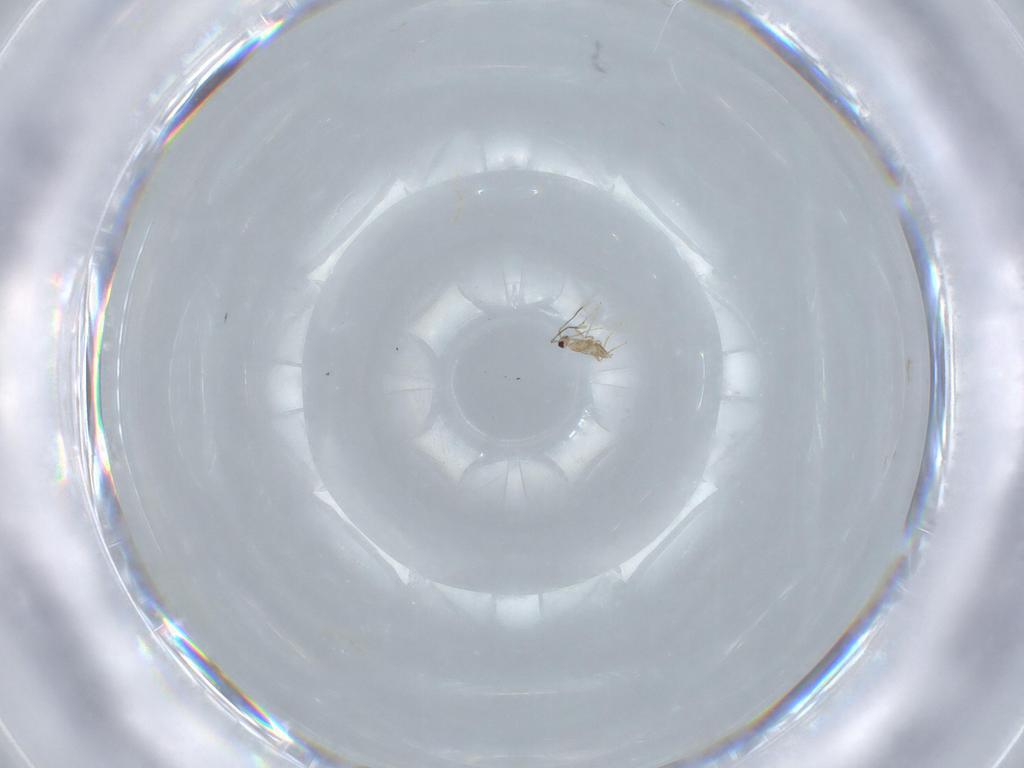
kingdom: Animalia
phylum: Arthropoda
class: Insecta
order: Hymenoptera
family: Mymaridae
